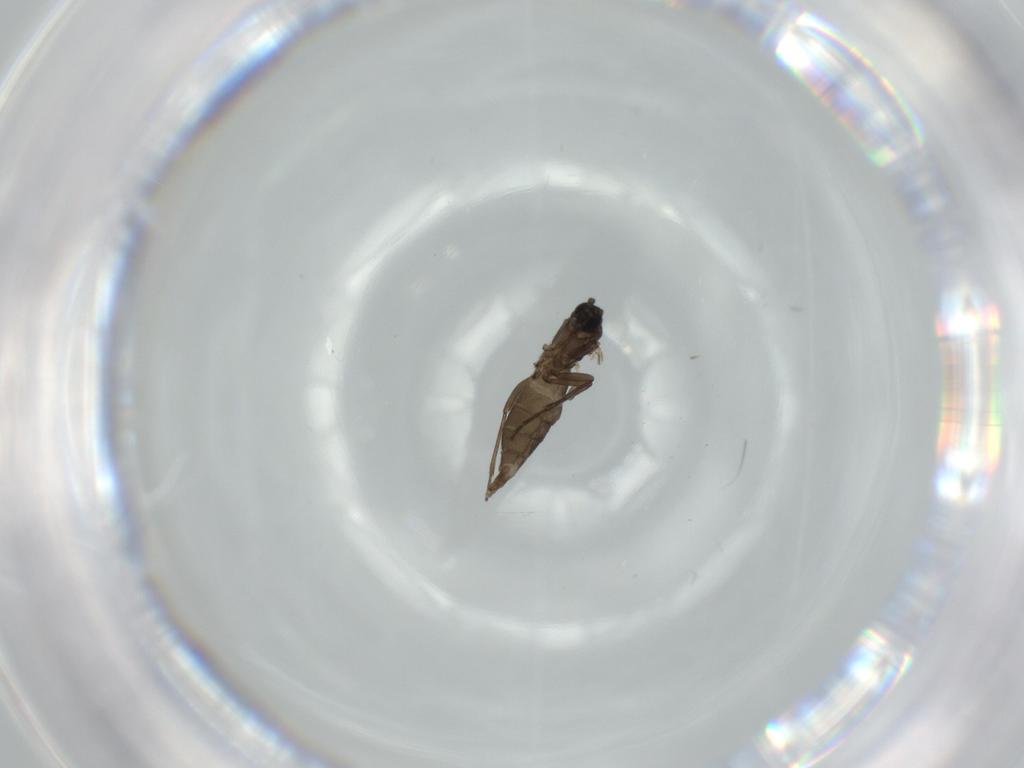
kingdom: Animalia
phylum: Arthropoda
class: Insecta
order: Diptera
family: Sciaridae
